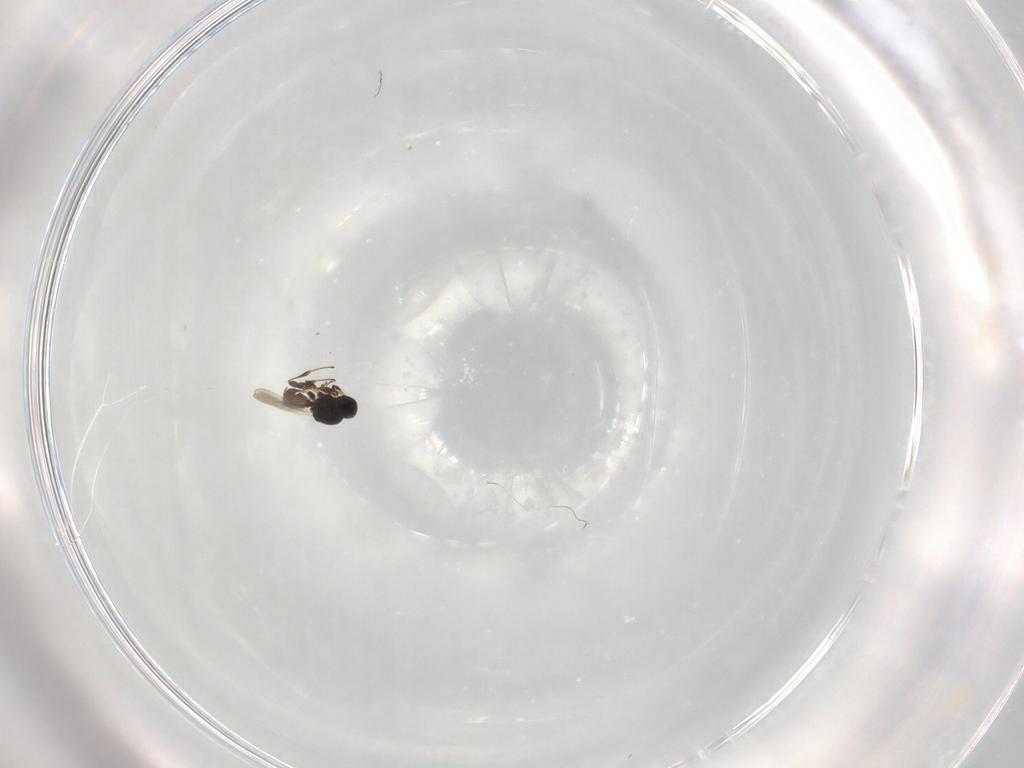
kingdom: Animalia
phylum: Arthropoda
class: Insecta
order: Hymenoptera
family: Platygastridae
